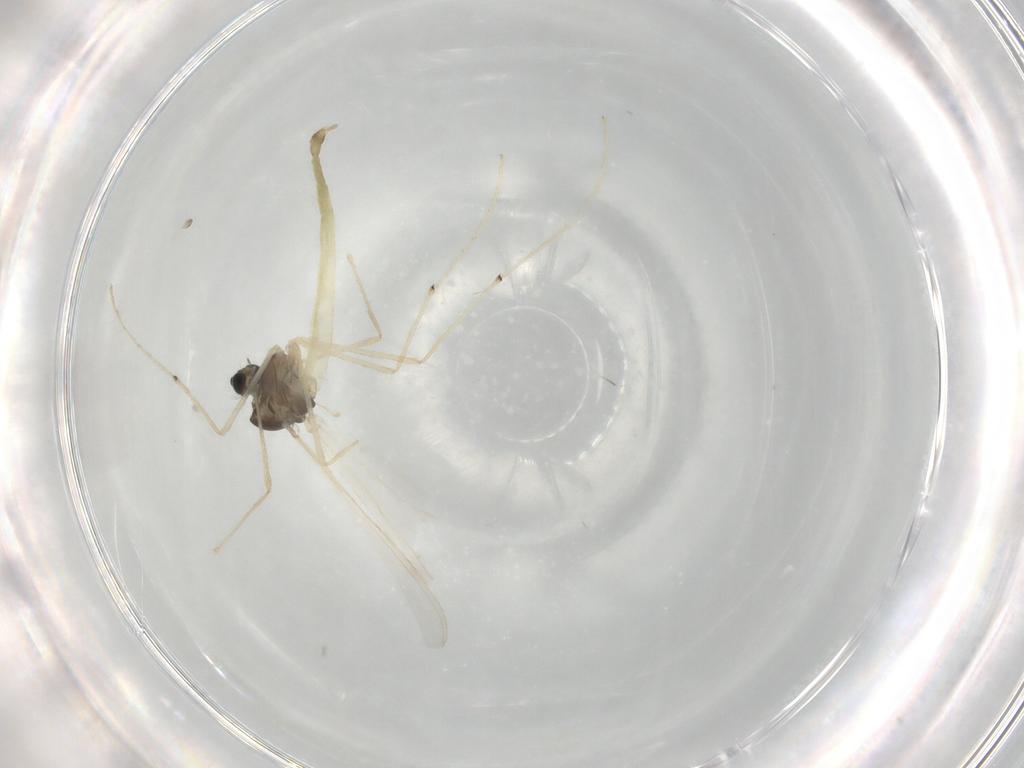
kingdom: Animalia
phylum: Arthropoda
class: Insecta
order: Diptera
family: Chironomidae
